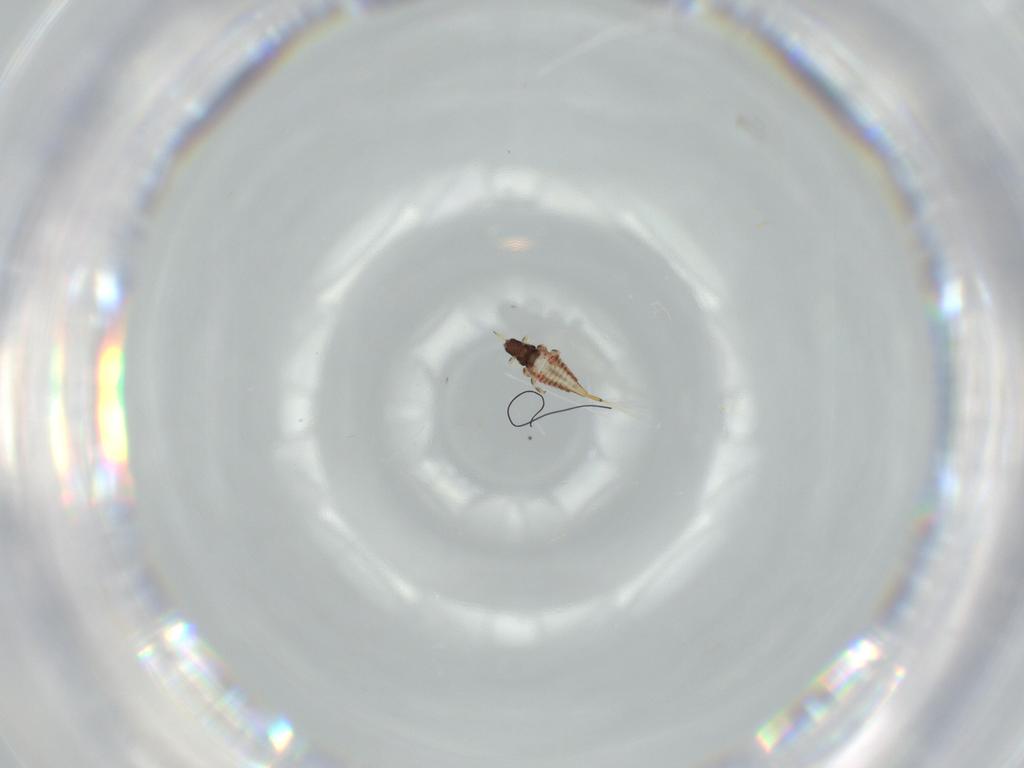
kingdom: Animalia
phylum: Arthropoda
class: Insecta
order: Thysanoptera
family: Phlaeothripidae
